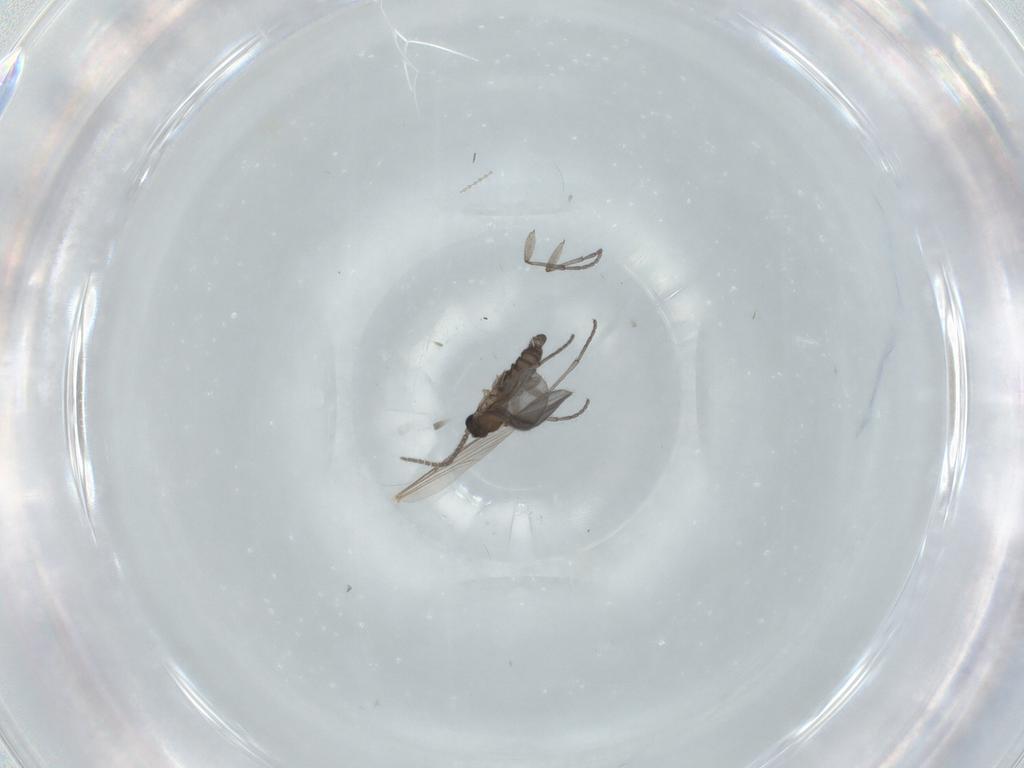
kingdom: Animalia
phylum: Arthropoda
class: Insecta
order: Diptera
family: Sciaridae
